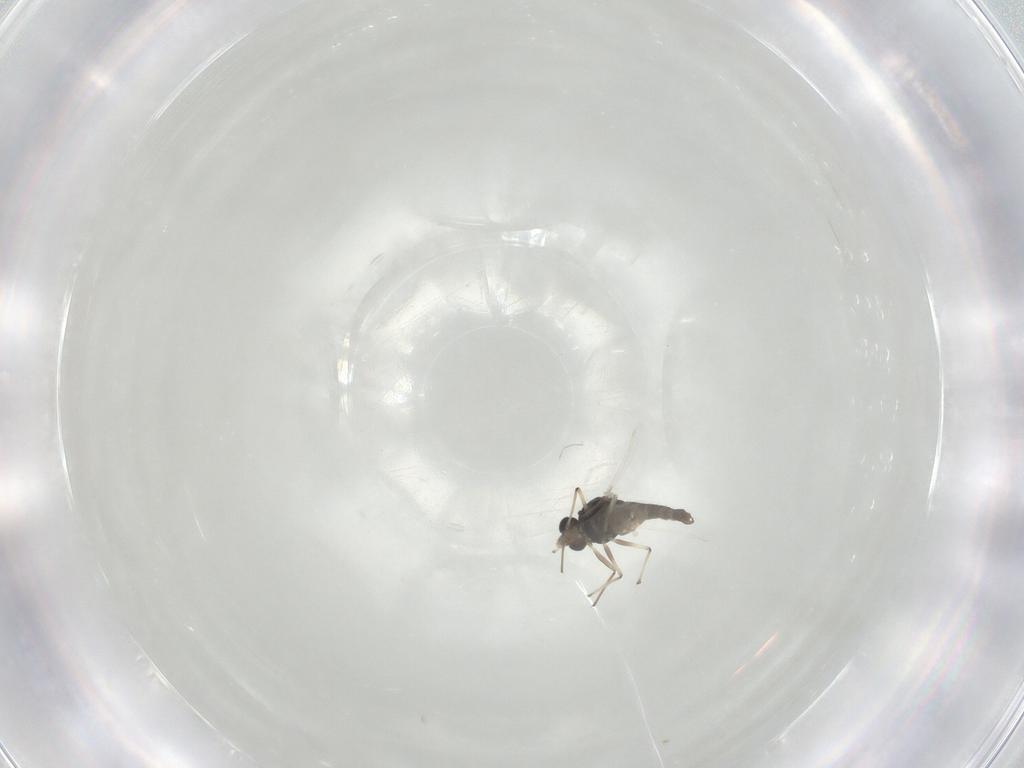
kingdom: Animalia
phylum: Arthropoda
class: Insecta
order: Diptera
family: Chironomidae
